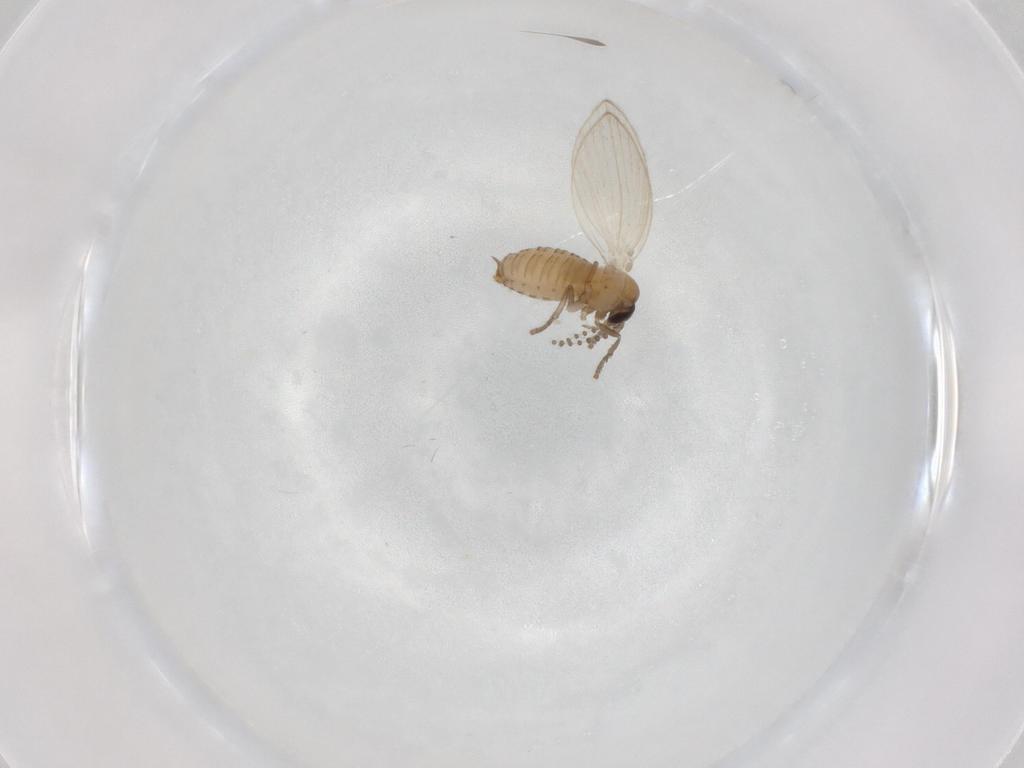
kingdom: Animalia
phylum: Arthropoda
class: Insecta
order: Diptera
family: Psychodidae
